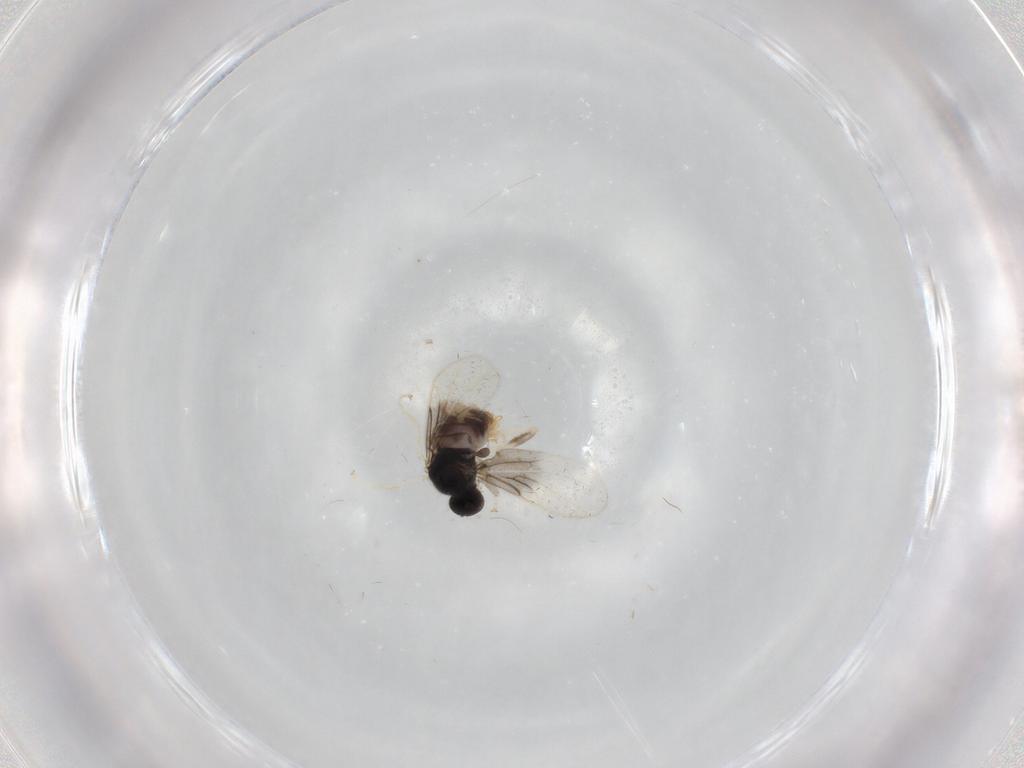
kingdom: Animalia
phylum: Arthropoda
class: Insecta
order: Diptera
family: Hybotidae
